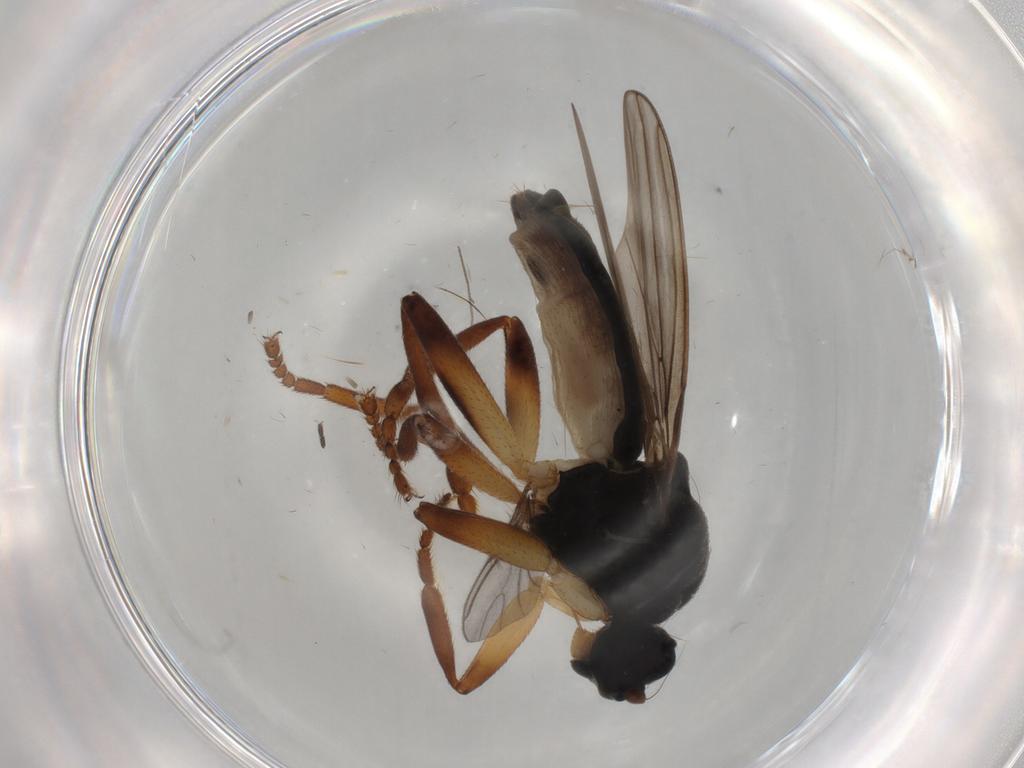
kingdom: Animalia
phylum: Arthropoda
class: Insecta
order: Diptera
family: Sphaeroceridae
